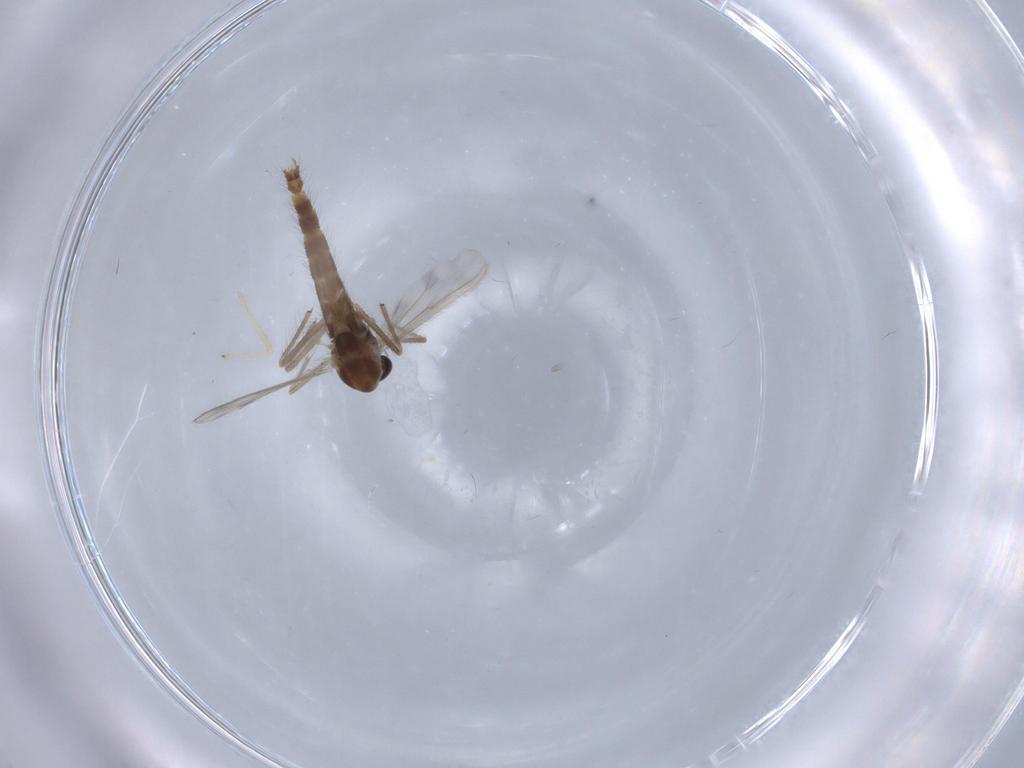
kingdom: Animalia
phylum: Arthropoda
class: Insecta
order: Diptera
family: Chironomidae
